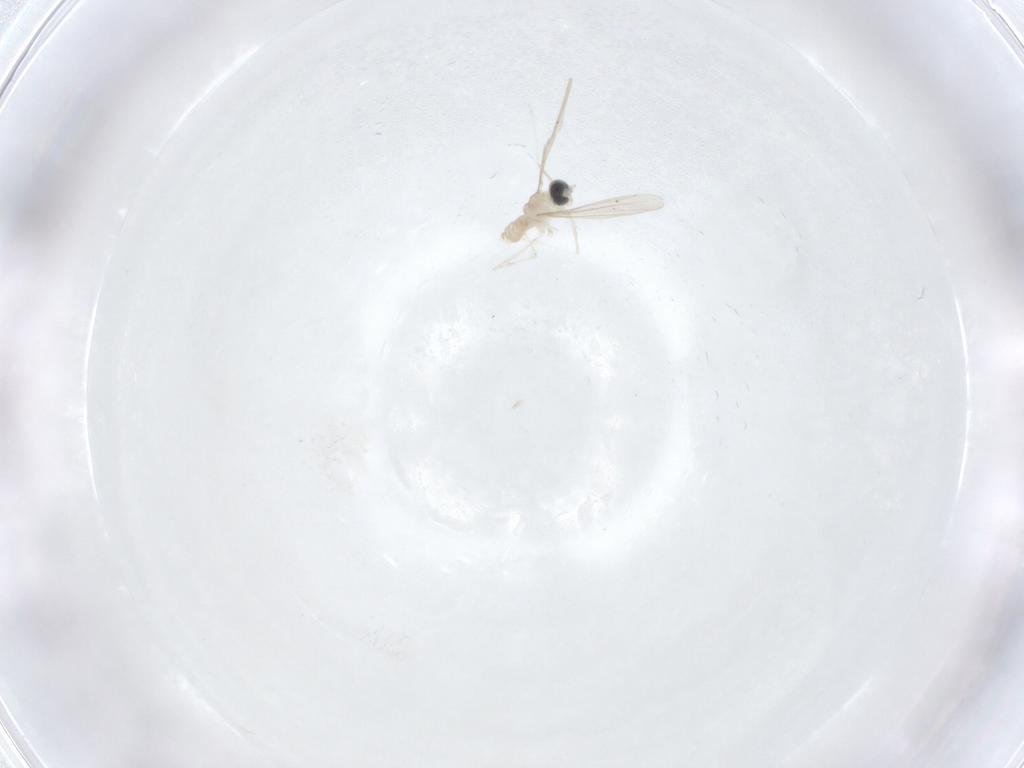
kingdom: Animalia
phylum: Arthropoda
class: Insecta
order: Diptera
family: Cecidomyiidae
